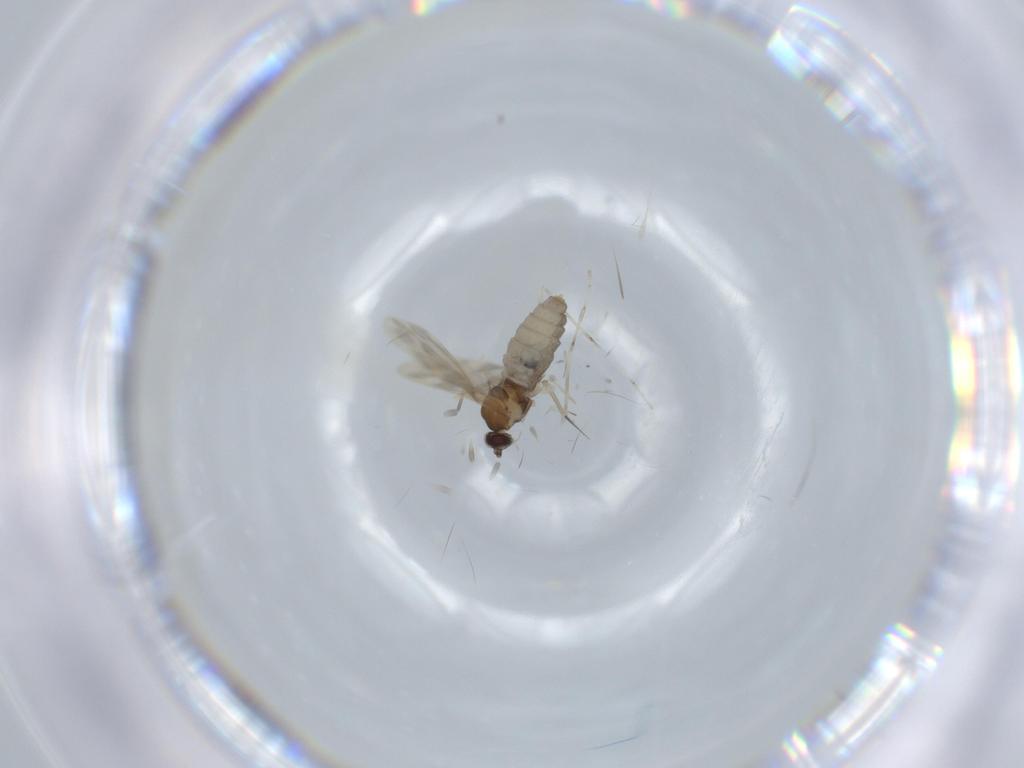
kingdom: Animalia
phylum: Arthropoda
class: Insecta
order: Diptera
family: Cecidomyiidae
